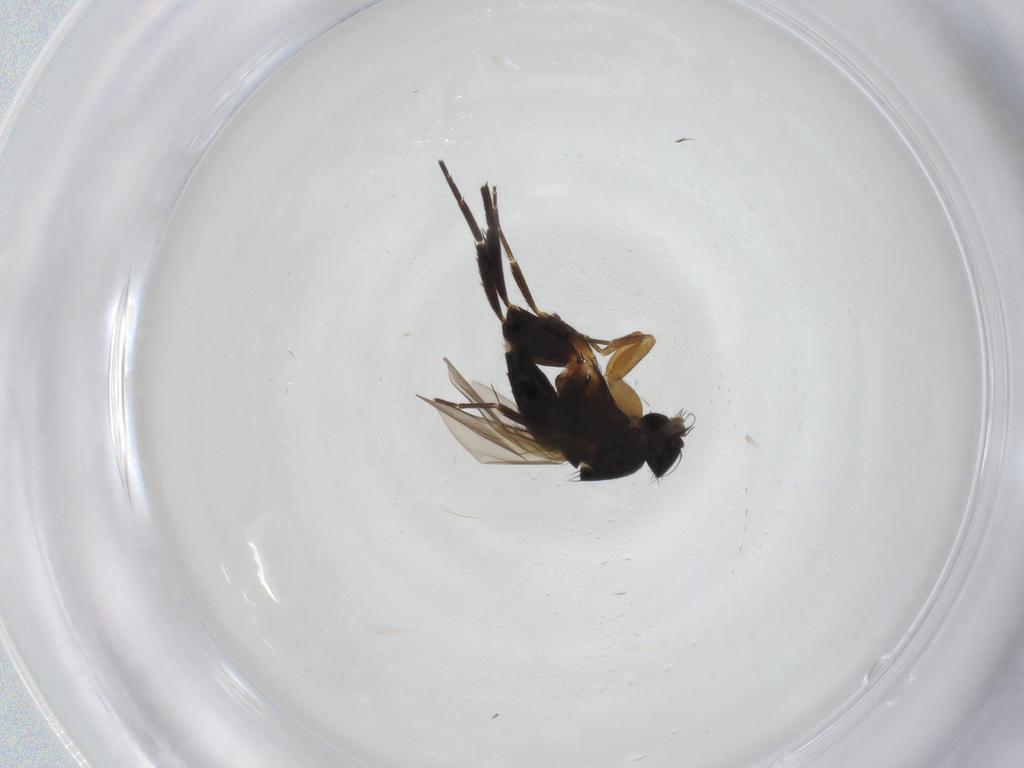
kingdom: Animalia
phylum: Arthropoda
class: Insecta
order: Diptera
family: Phoridae
